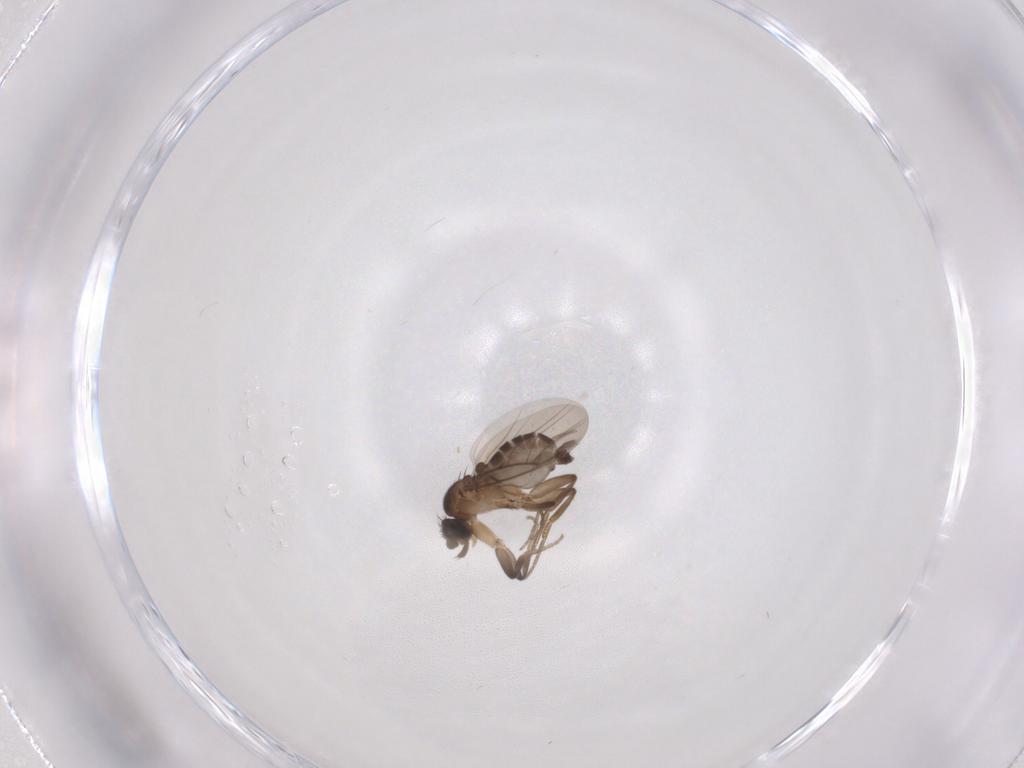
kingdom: Animalia
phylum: Arthropoda
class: Insecta
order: Diptera
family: Phoridae
